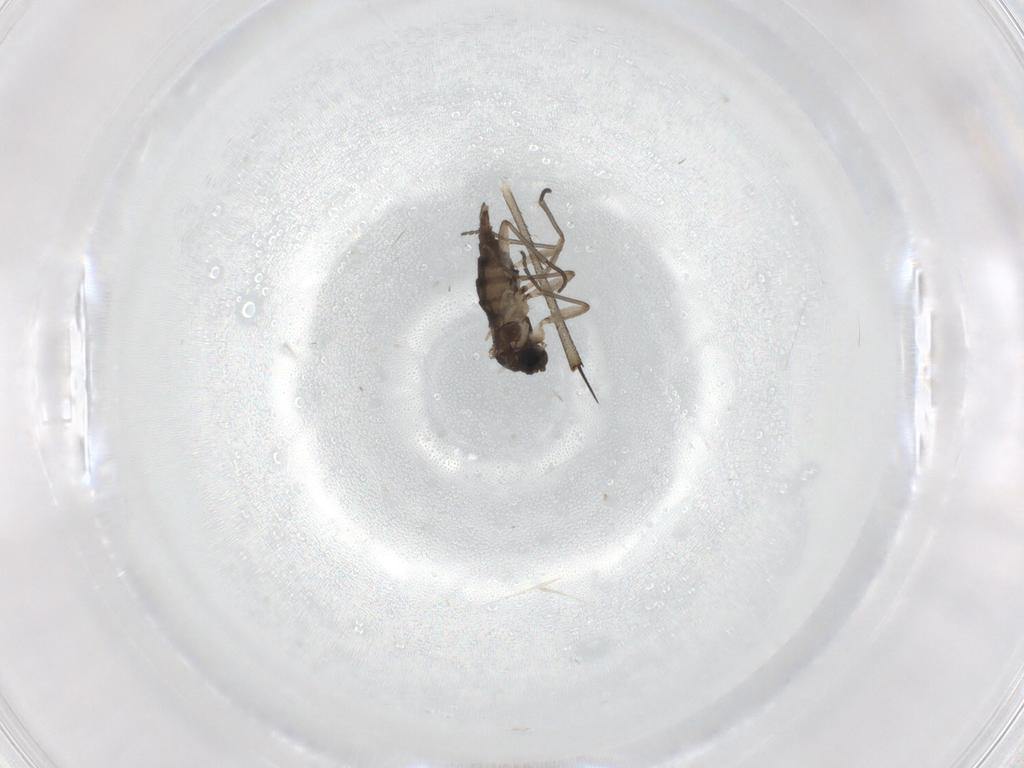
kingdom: Animalia
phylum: Arthropoda
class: Insecta
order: Diptera
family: Sciaridae
